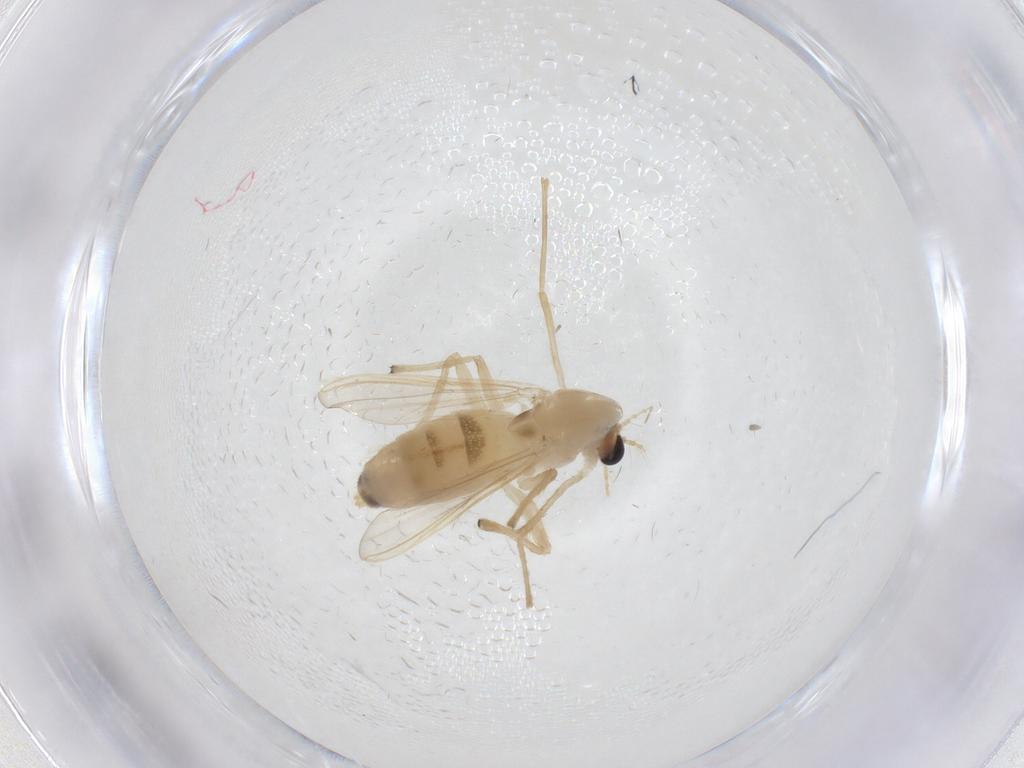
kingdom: Animalia
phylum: Arthropoda
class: Insecta
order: Diptera
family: Chironomidae
